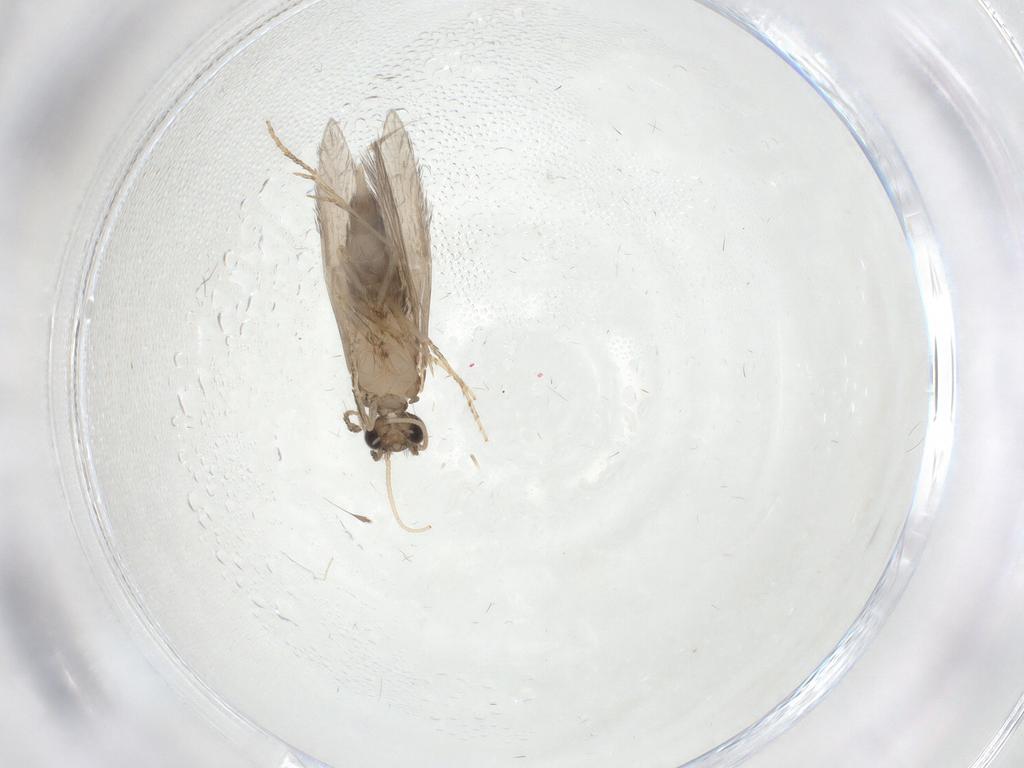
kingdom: Animalia
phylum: Arthropoda
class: Insecta
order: Trichoptera
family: Hydroptilidae
